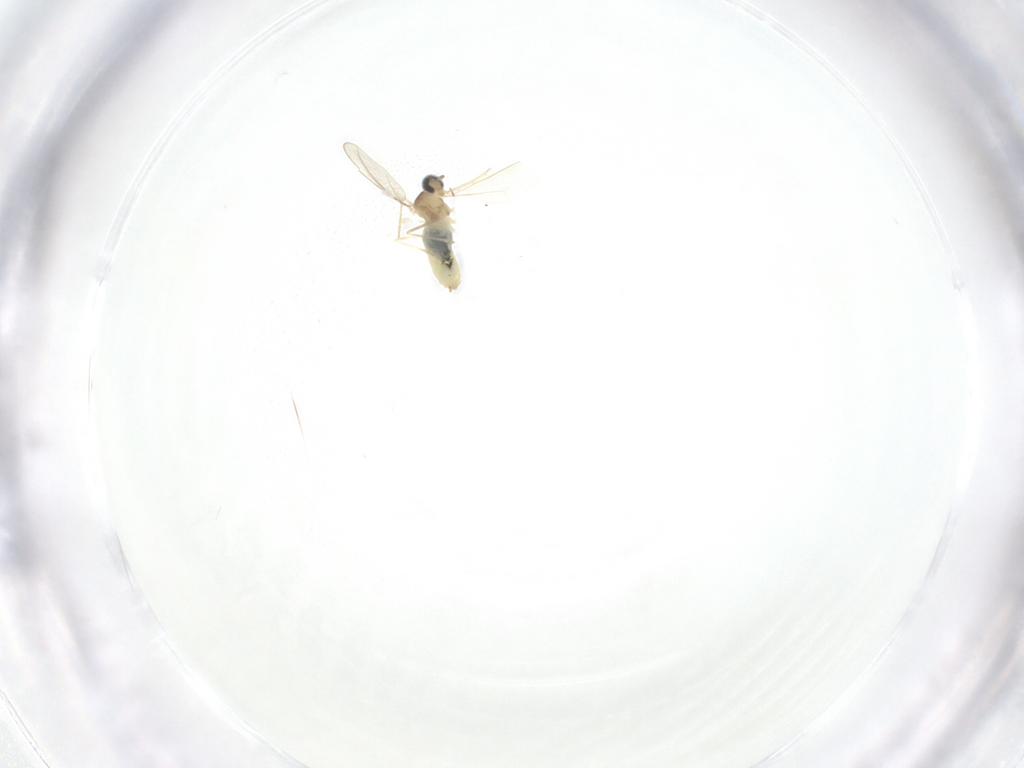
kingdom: Animalia
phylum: Arthropoda
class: Insecta
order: Diptera
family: Cecidomyiidae
